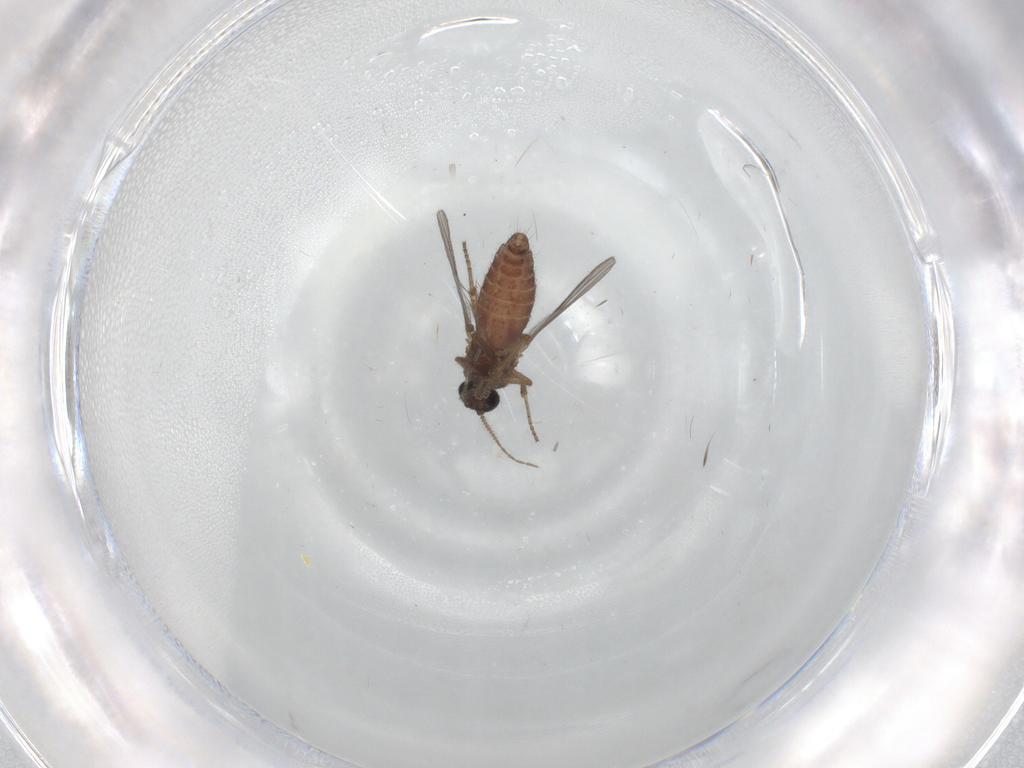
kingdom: Animalia
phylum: Arthropoda
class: Insecta
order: Diptera
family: Ceratopogonidae
